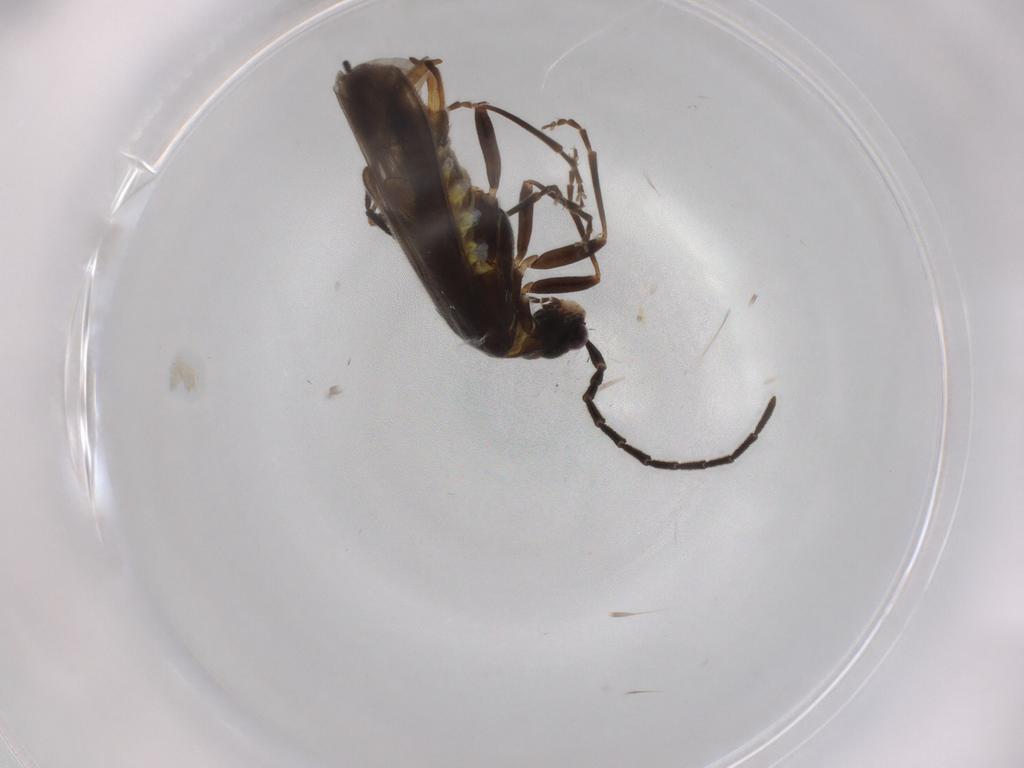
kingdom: Animalia
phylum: Arthropoda
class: Insecta
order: Coleoptera
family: Cantharidae
